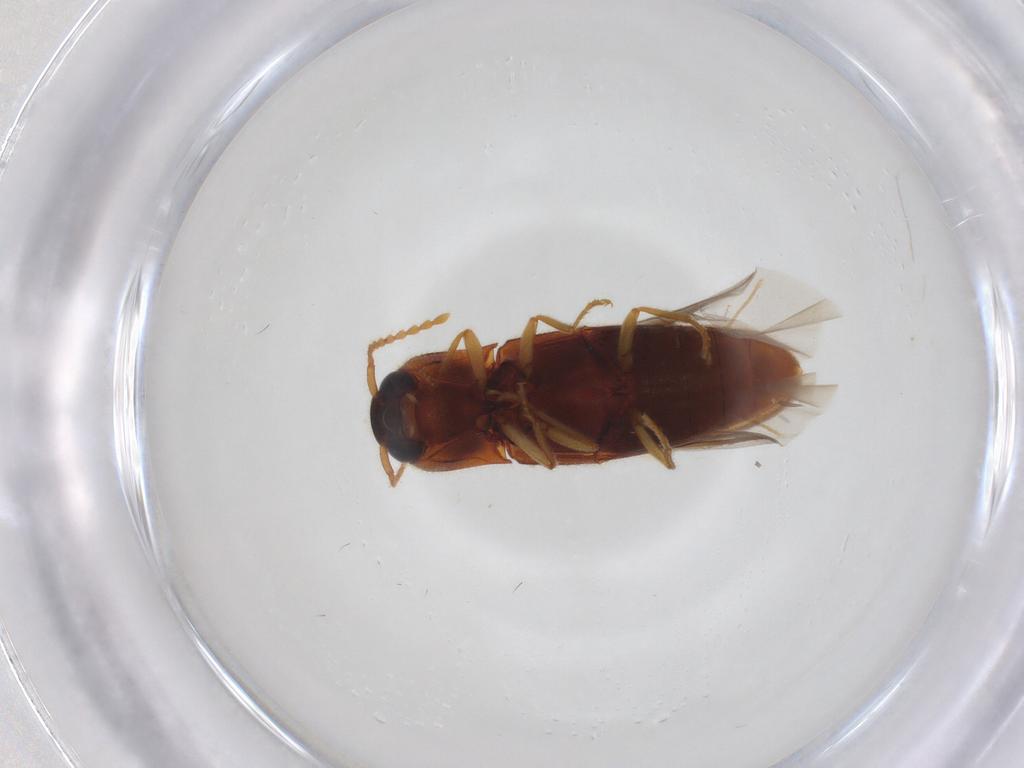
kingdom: Animalia
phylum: Arthropoda
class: Insecta
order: Coleoptera
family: Elateridae
